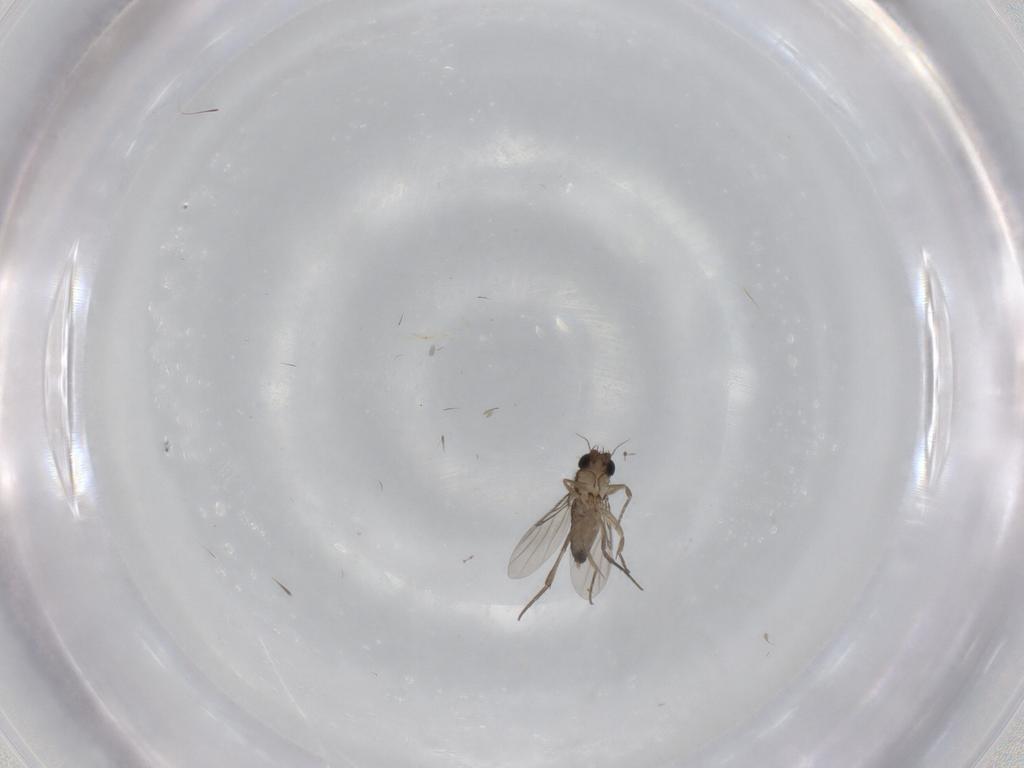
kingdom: Animalia
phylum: Arthropoda
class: Insecta
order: Diptera
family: Phoridae
